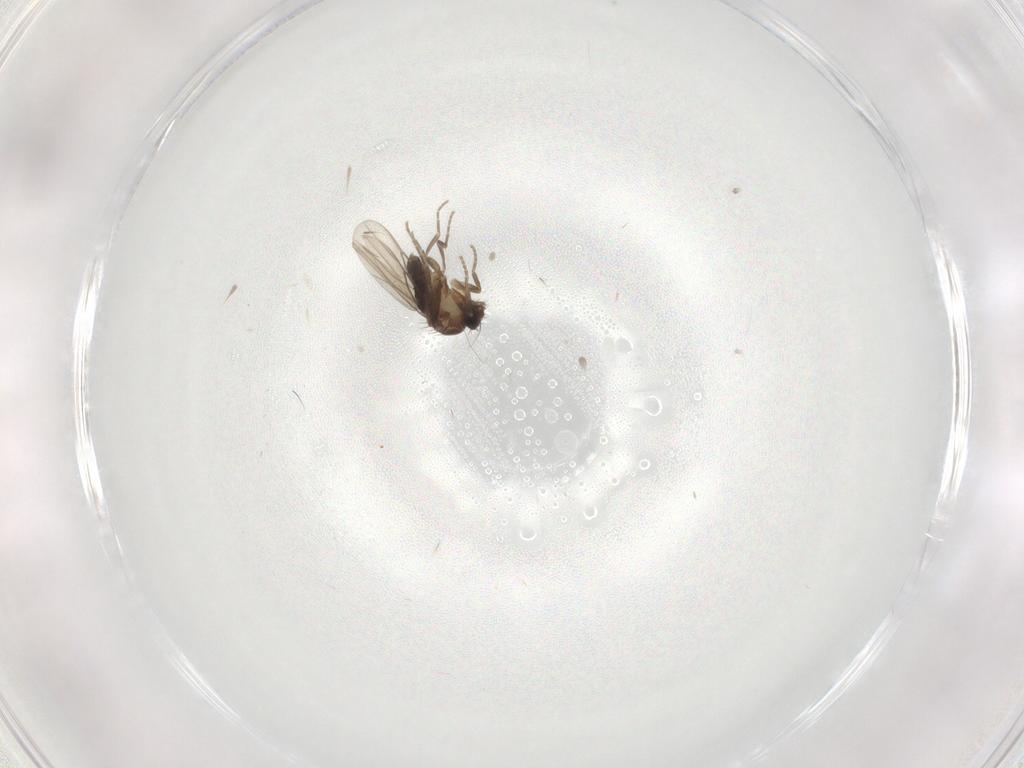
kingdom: Animalia
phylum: Arthropoda
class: Insecta
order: Diptera
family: Phoridae
